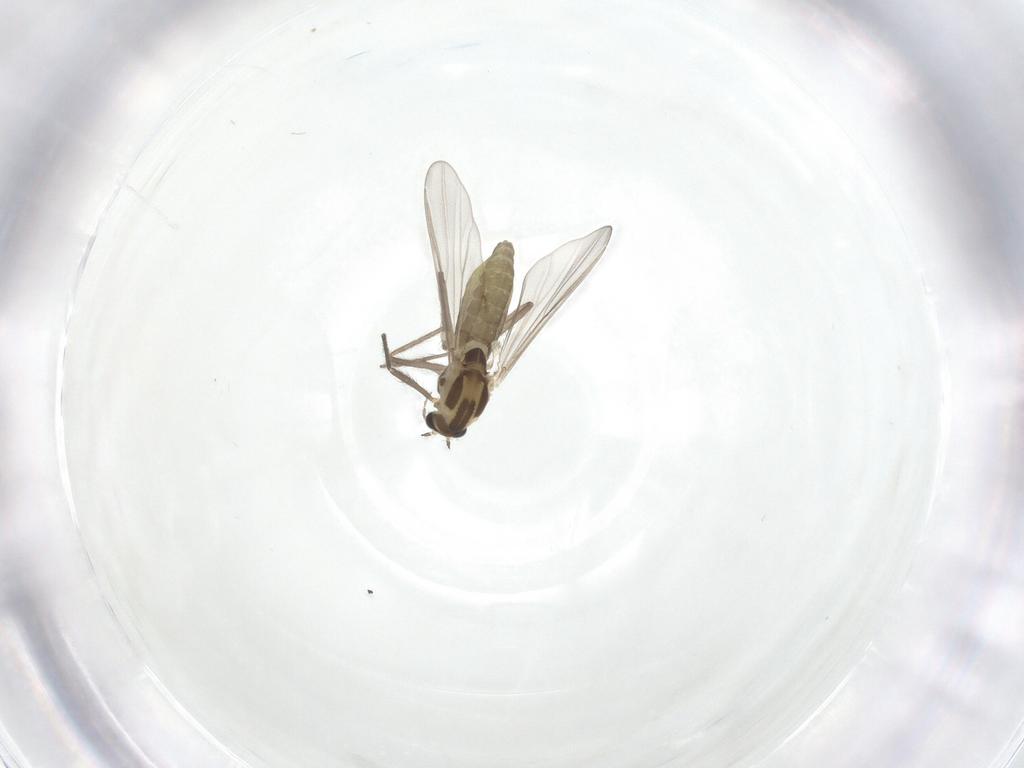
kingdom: Animalia
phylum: Arthropoda
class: Insecta
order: Diptera
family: Chironomidae
